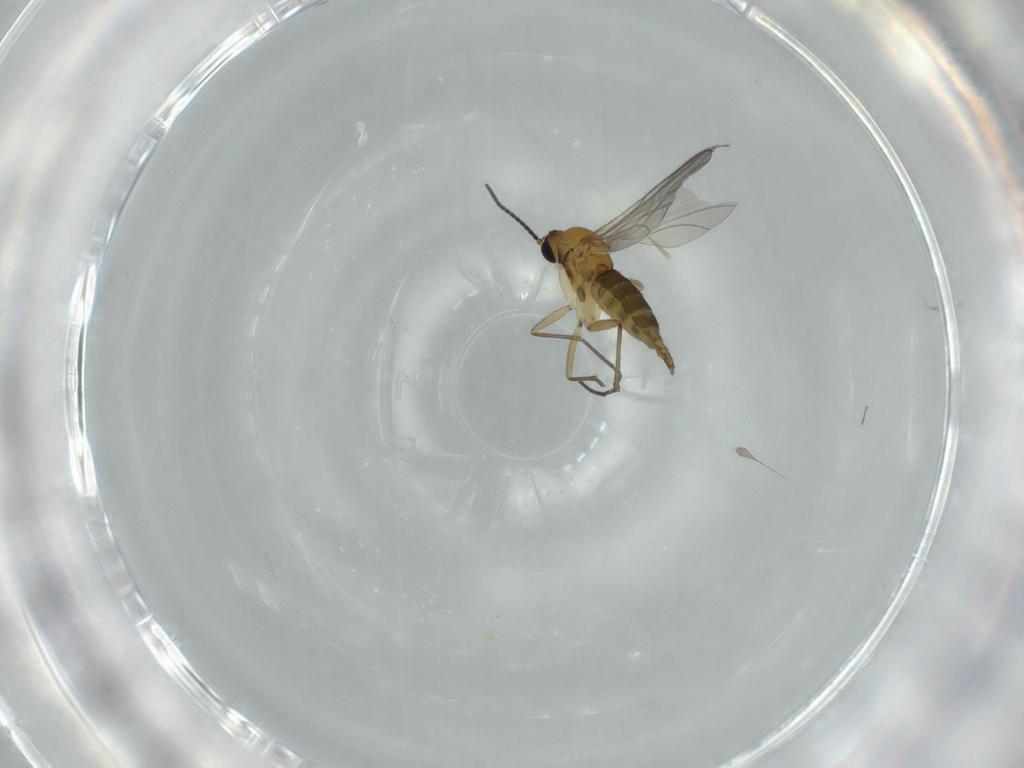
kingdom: Animalia
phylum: Arthropoda
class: Insecta
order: Diptera
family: Sciaridae
